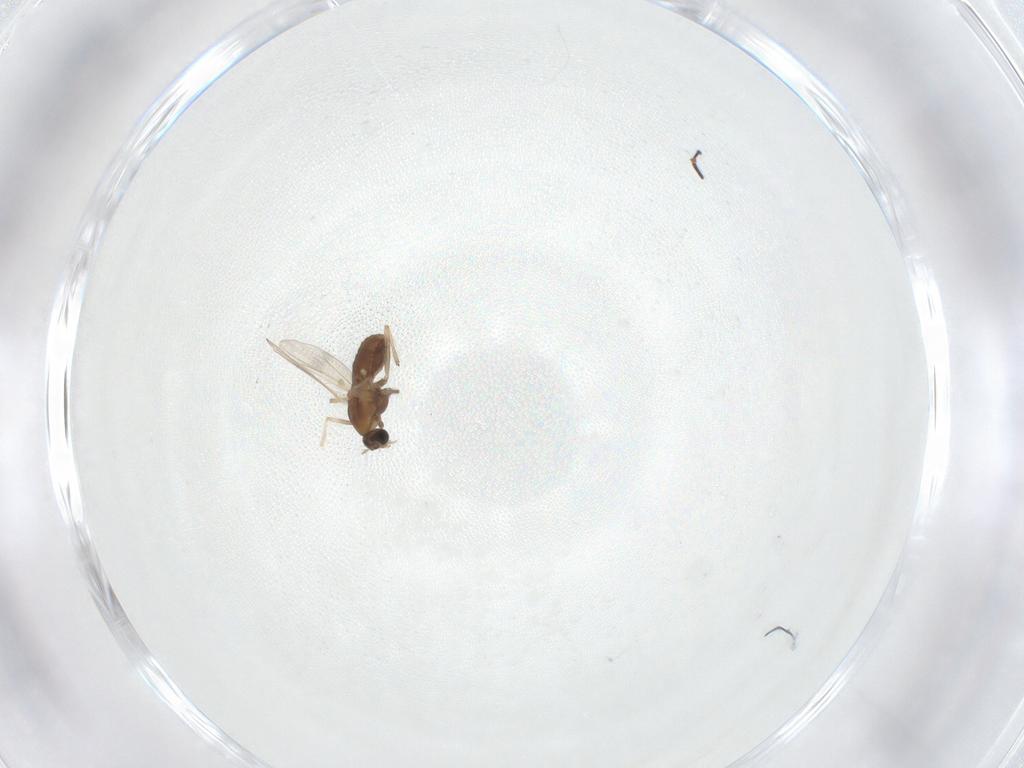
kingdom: Animalia
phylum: Arthropoda
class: Insecta
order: Diptera
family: Chironomidae
